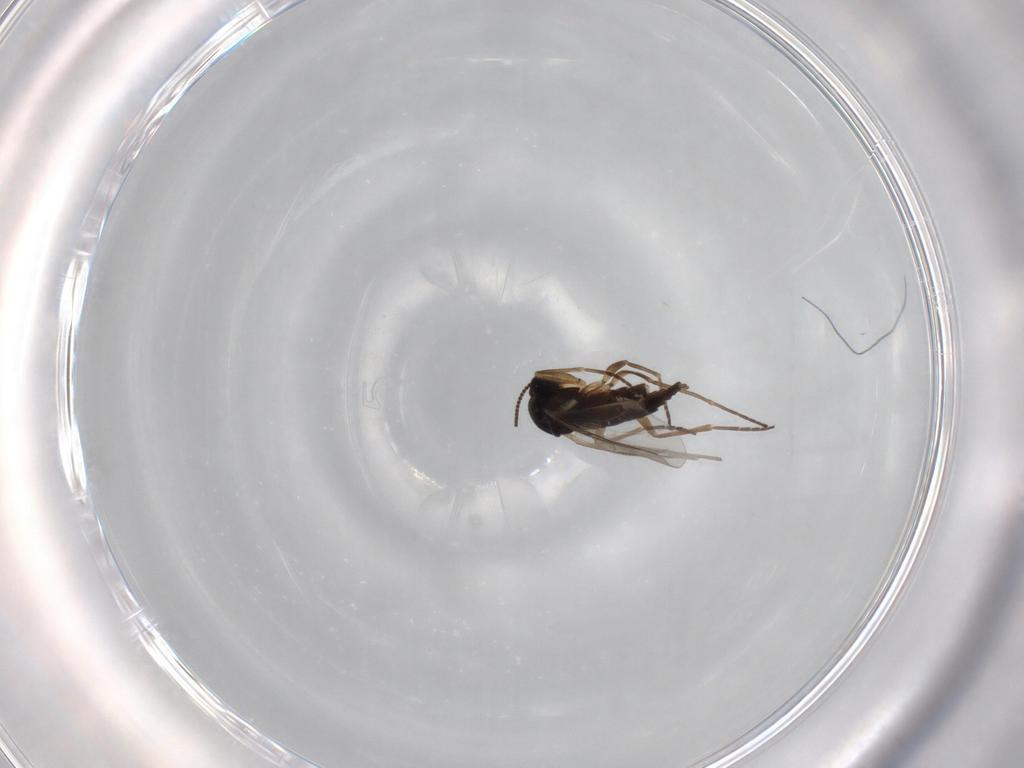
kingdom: Animalia
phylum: Arthropoda
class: Insecta
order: Diptera
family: Sciaridae
